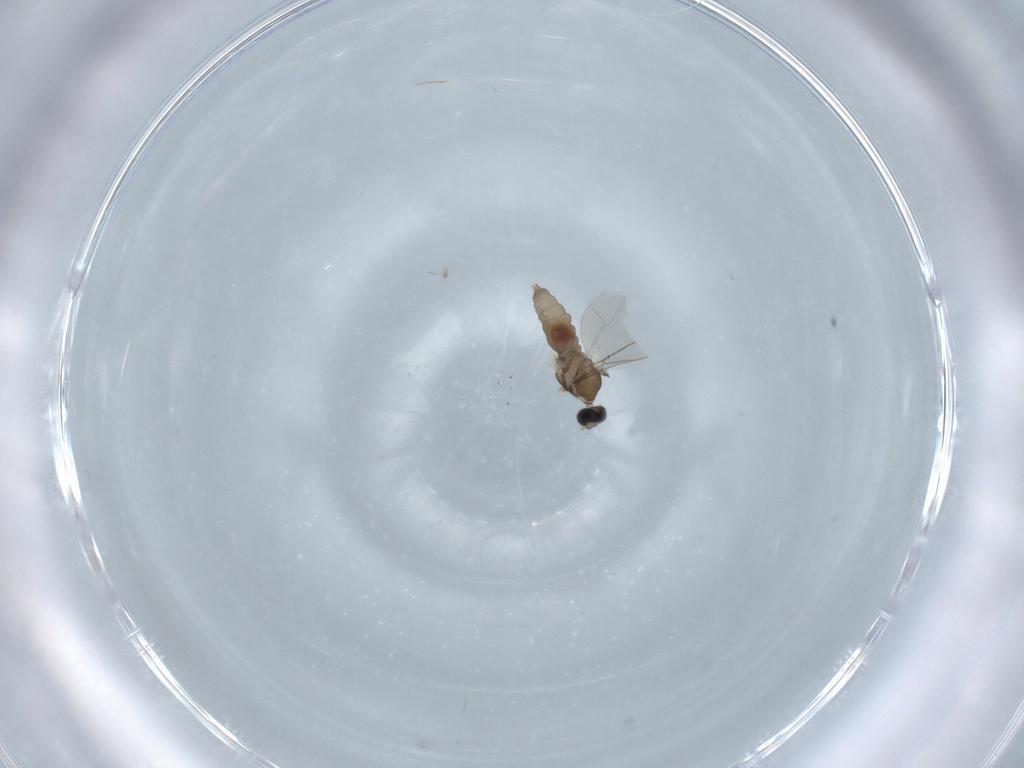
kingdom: Animalia
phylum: Arthropoda
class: Insecta
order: Diptera
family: Cecidomyiidae
